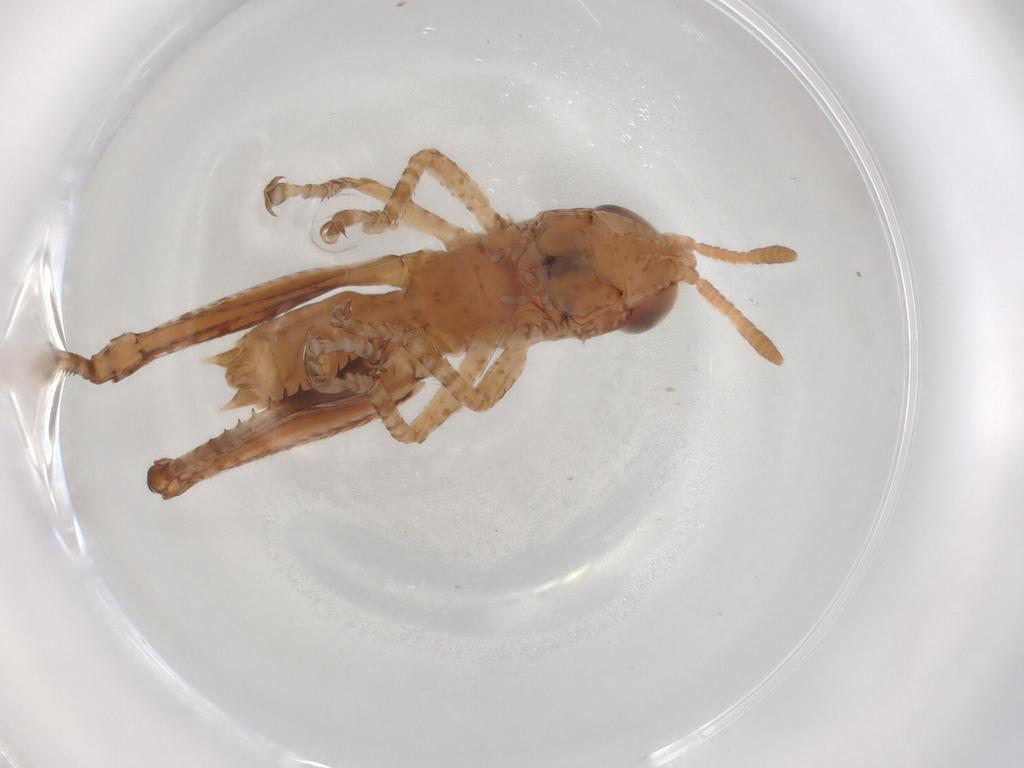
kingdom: Animalia
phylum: Arthropoda
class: Insecta
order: Orthoptera
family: Acrididae
